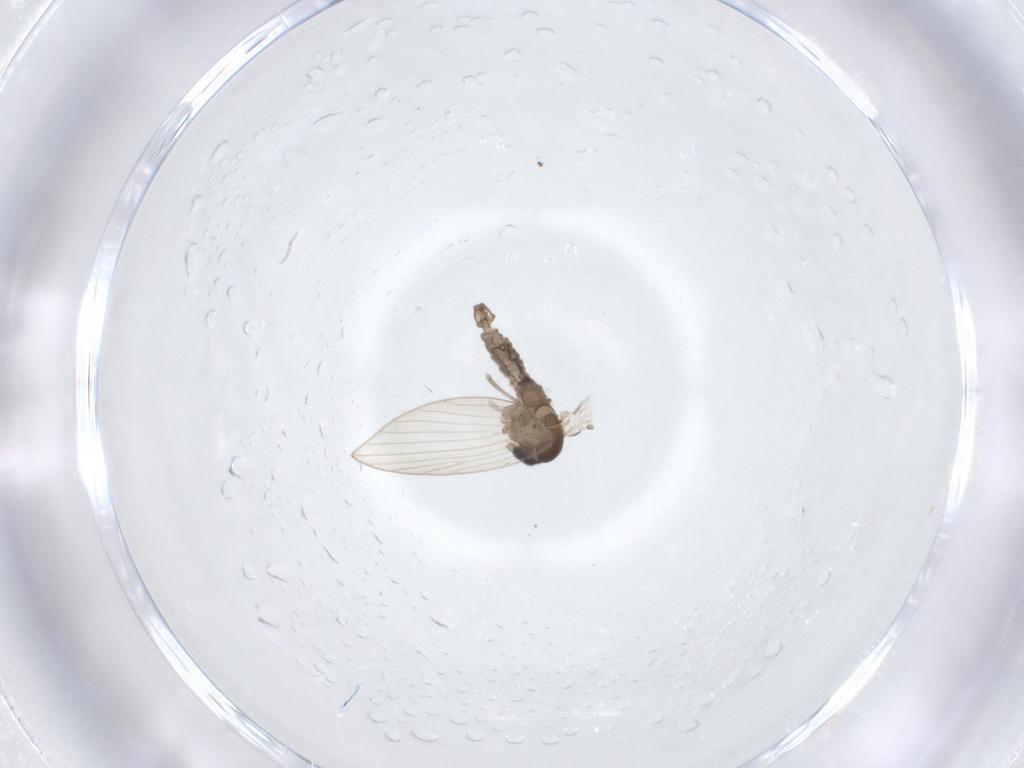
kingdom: Animalia
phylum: Arthropoda
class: Insecta
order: Diptera
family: Psychodidae
